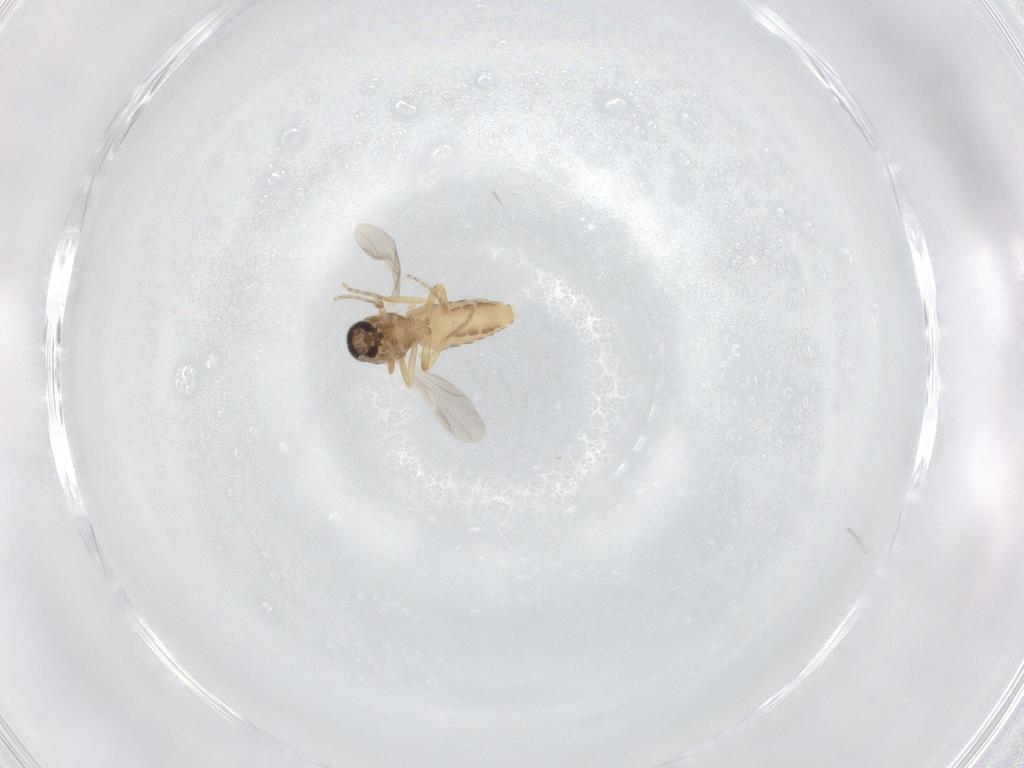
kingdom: Animalia
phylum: Arthropoda
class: Insecta
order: Diptera
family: Ceratopogonidae
